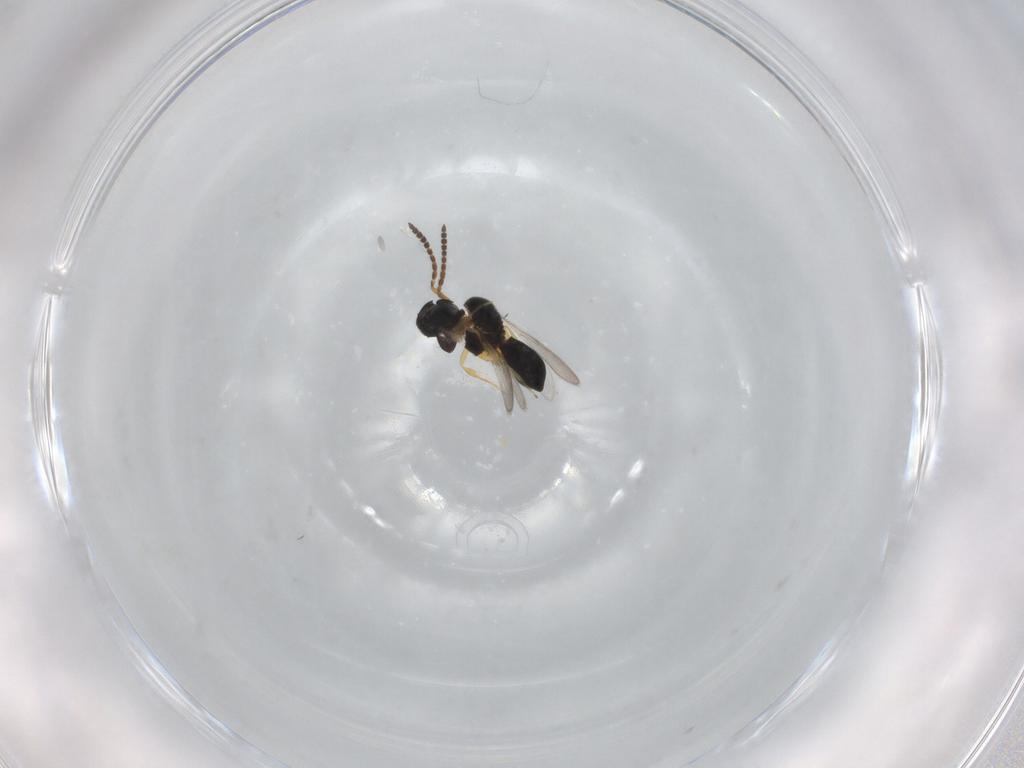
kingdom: Animalia
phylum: Arthropoda
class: Insecta
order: Hymenoptera
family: Scelionidae
